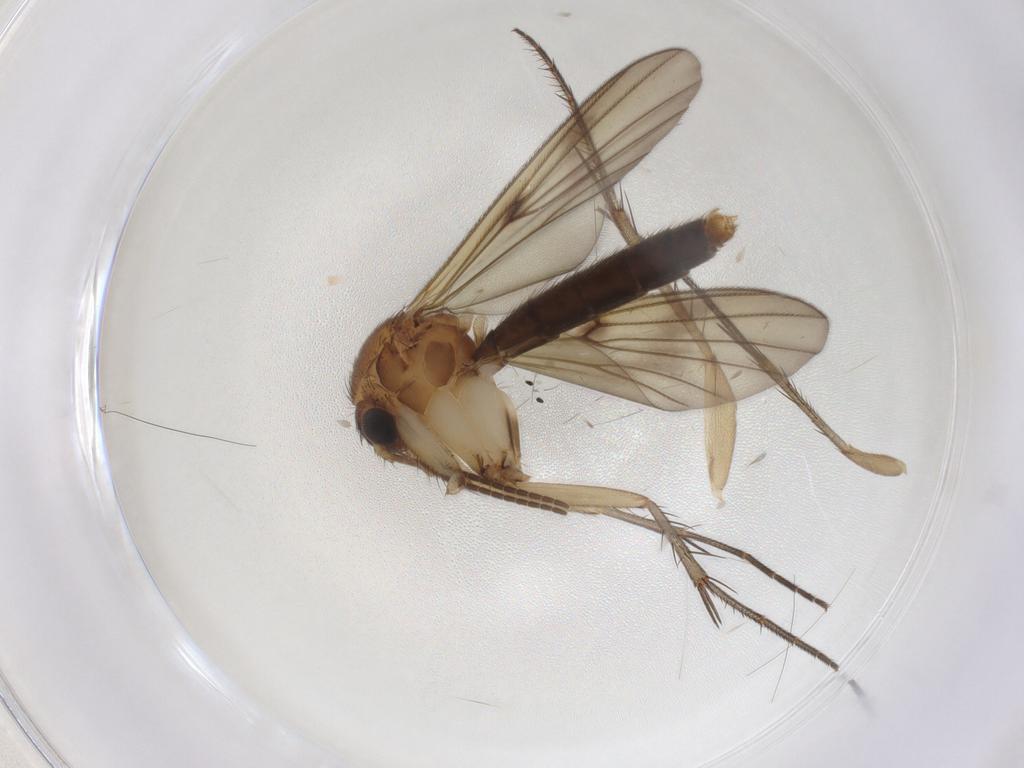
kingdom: Animalia
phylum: Arthropoda
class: Insecta
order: Diptera
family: Mycetophilidae
